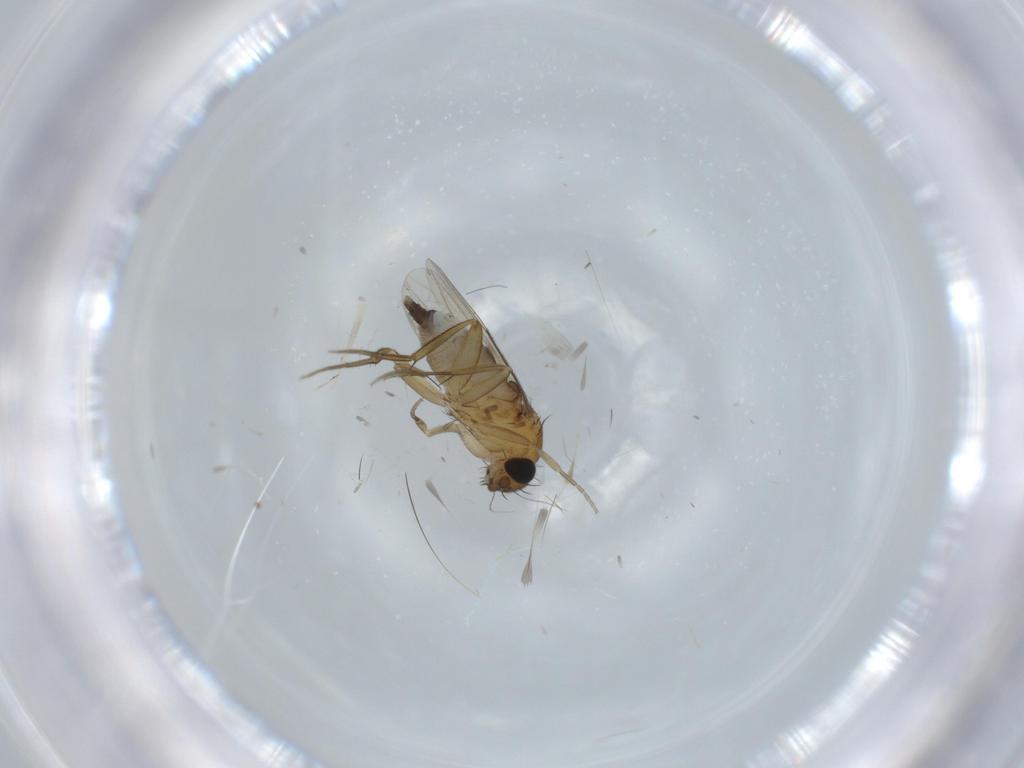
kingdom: Animalia
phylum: Arthropoda
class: Insecta
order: Diptera
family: Phoridae
